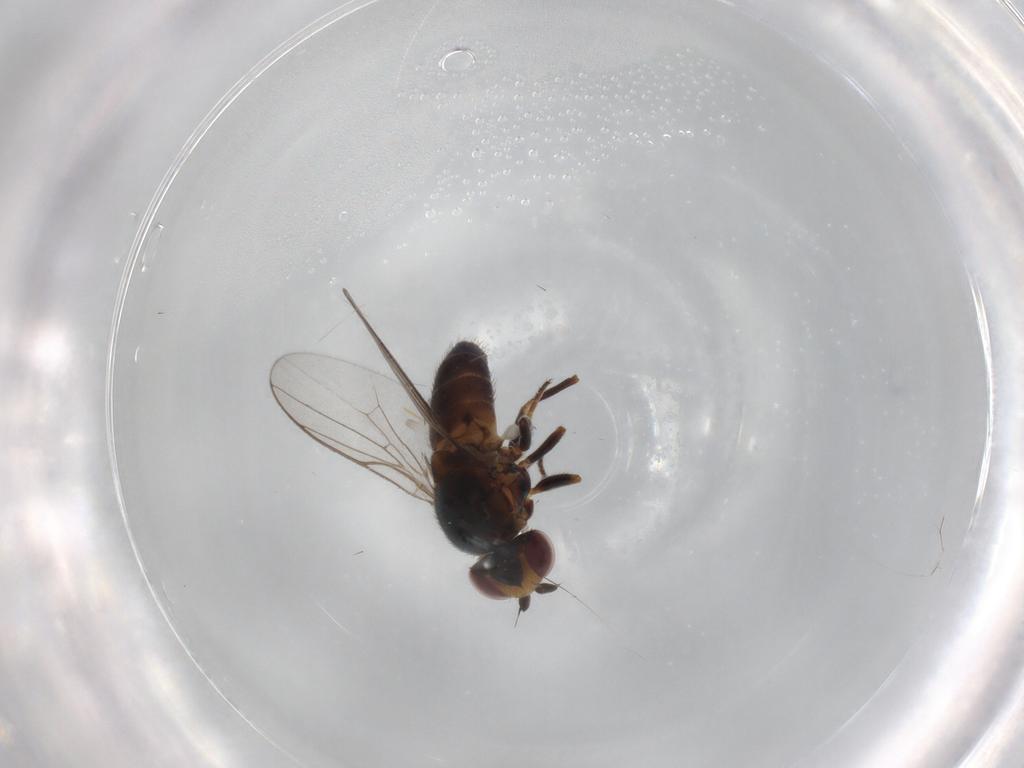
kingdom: Animalia
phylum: Arthropoda
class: Insecta
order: Diptera
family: Chloropidae
